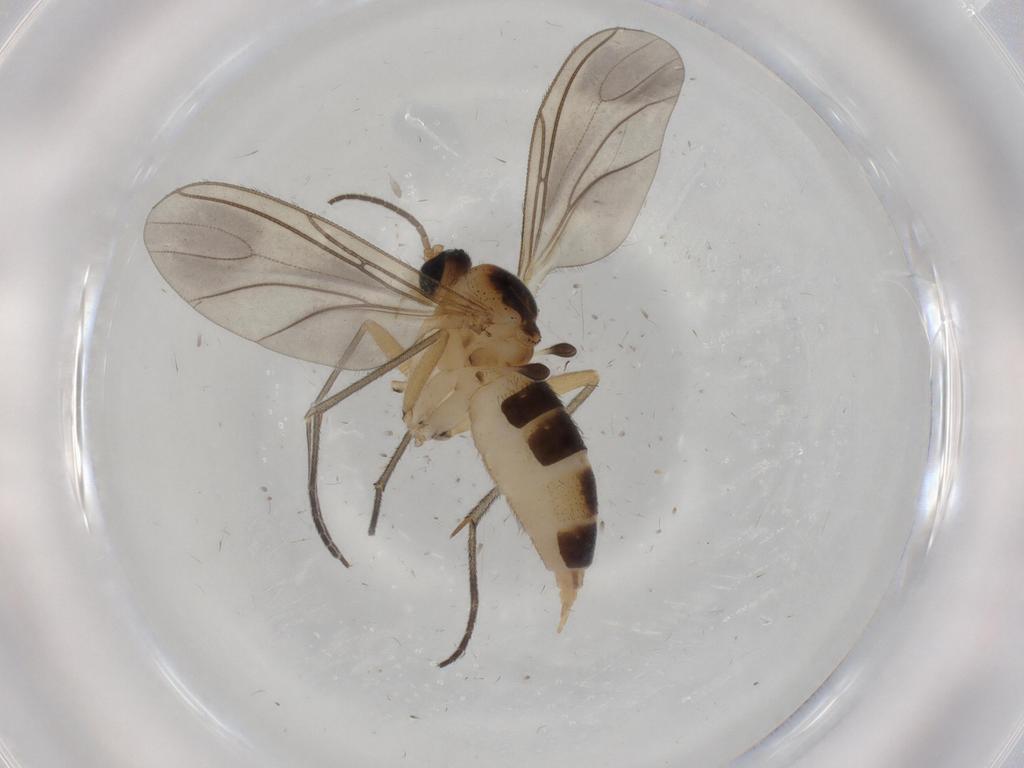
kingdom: Animalia
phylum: Arthropoda
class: Insecta
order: Diptera
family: Sciaridae
